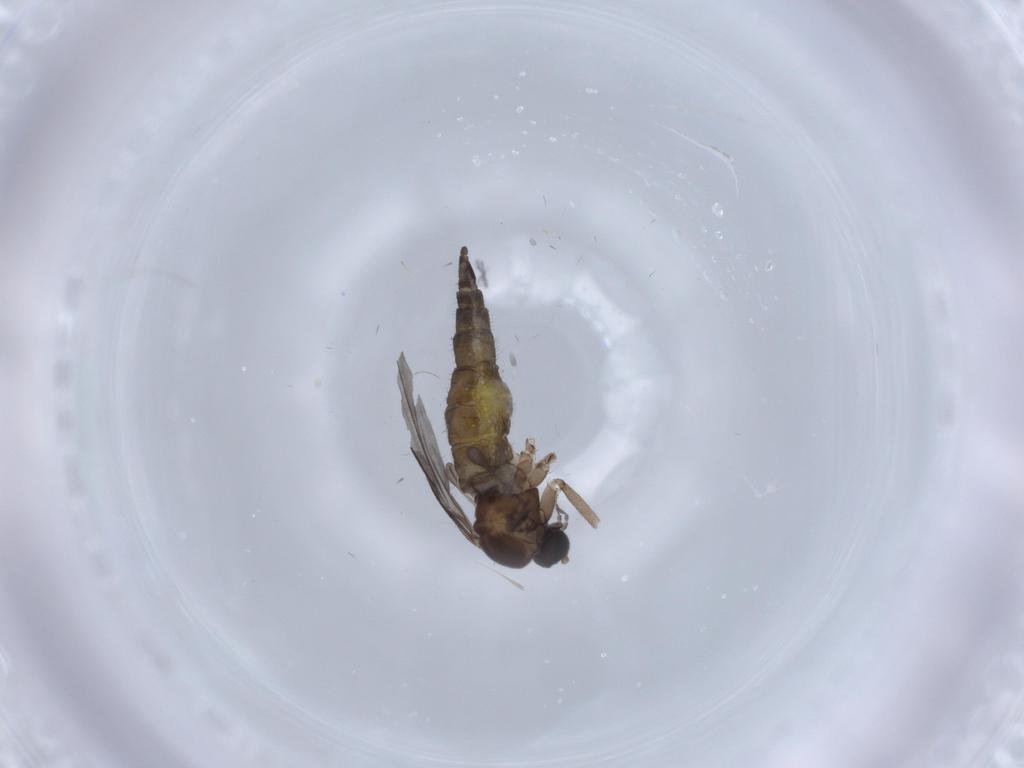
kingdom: Animalia
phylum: Arthropoda
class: Insecta
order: Diptera
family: Sciaridae
